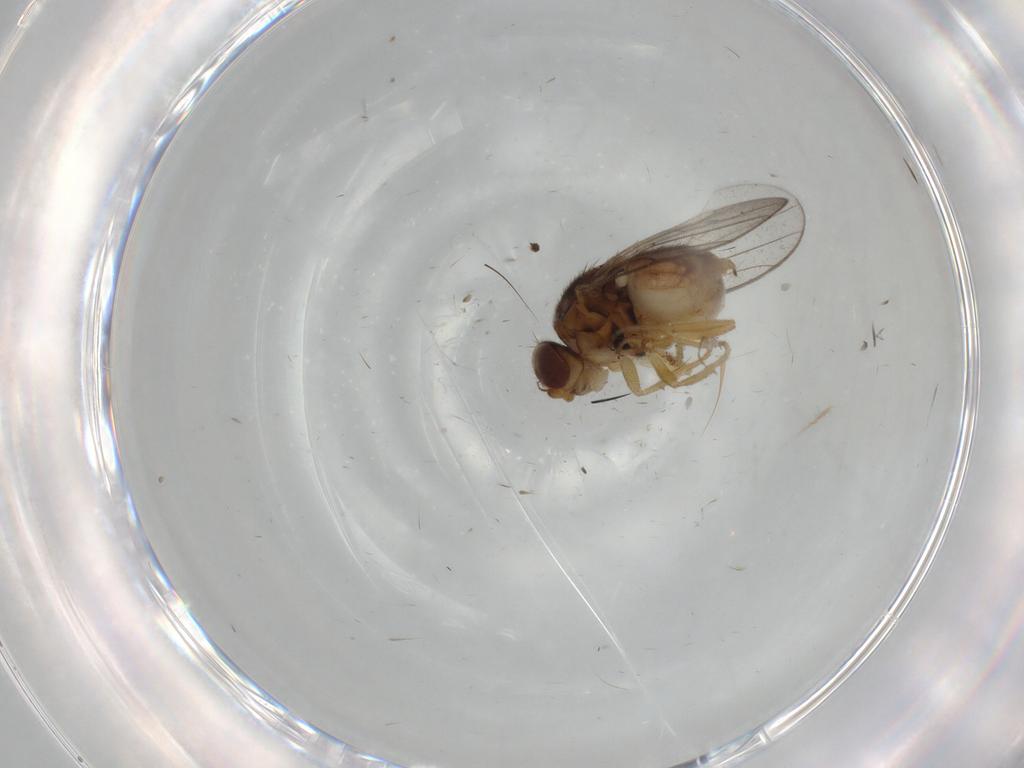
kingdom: Animalia
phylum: Arthropoda
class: Insecta
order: Diptera
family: Chloropidae
